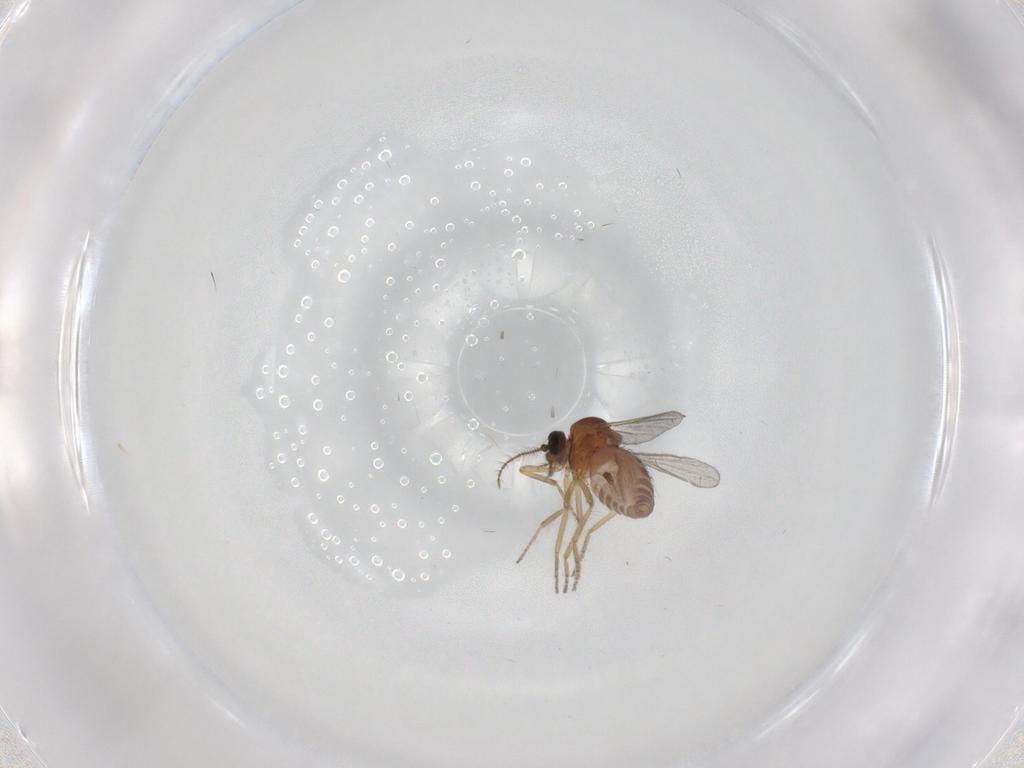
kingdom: Animalia
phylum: Arthropoda
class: Insecta
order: Diptera
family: Ceratopogonidae
